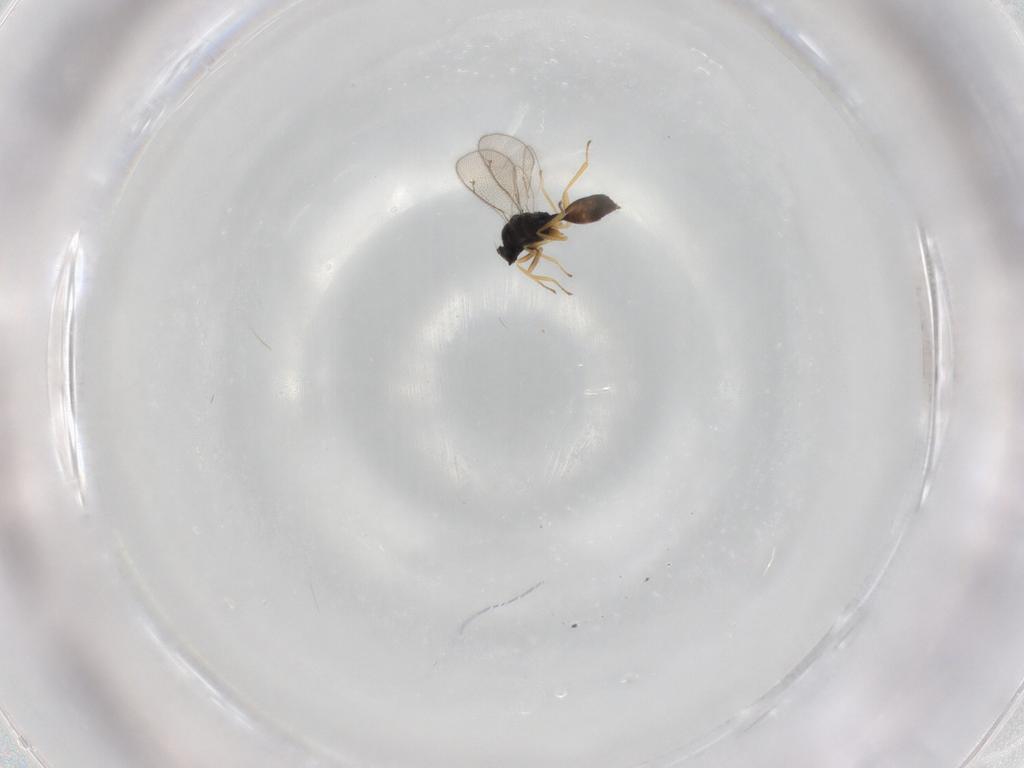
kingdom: Animalia
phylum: Arthropoda
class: Insecta
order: Hymenoptera
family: Eulophidae
